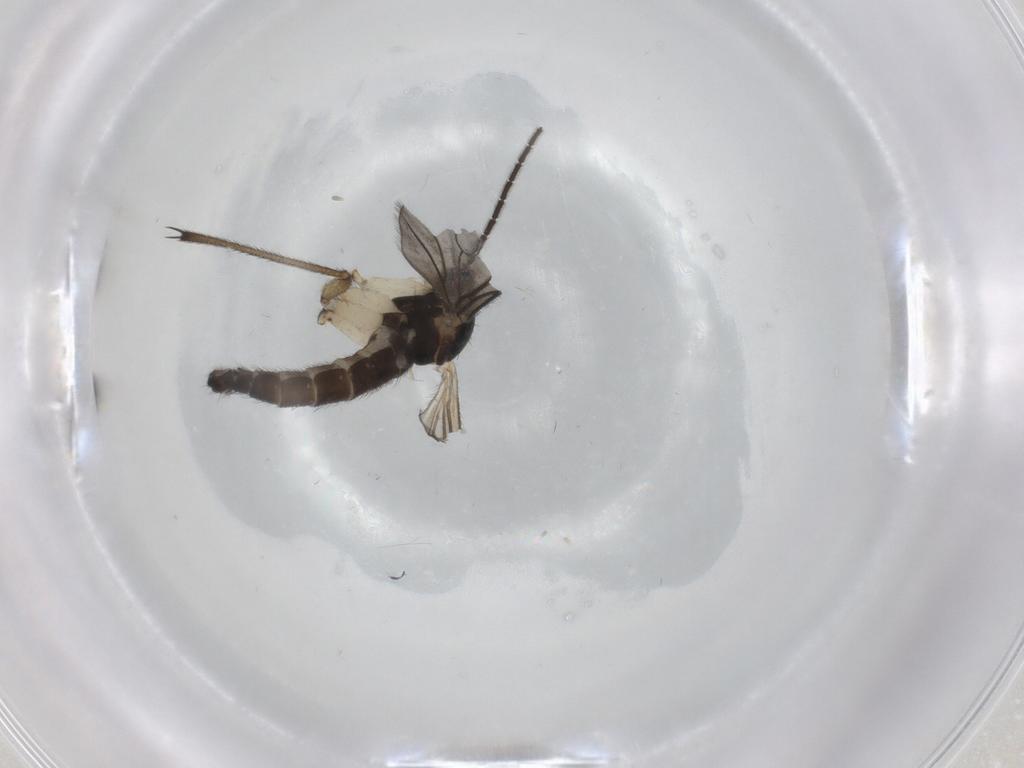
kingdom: Animalia
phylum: Arthropoda
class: Insecta
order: Diptera
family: Sciaridae
